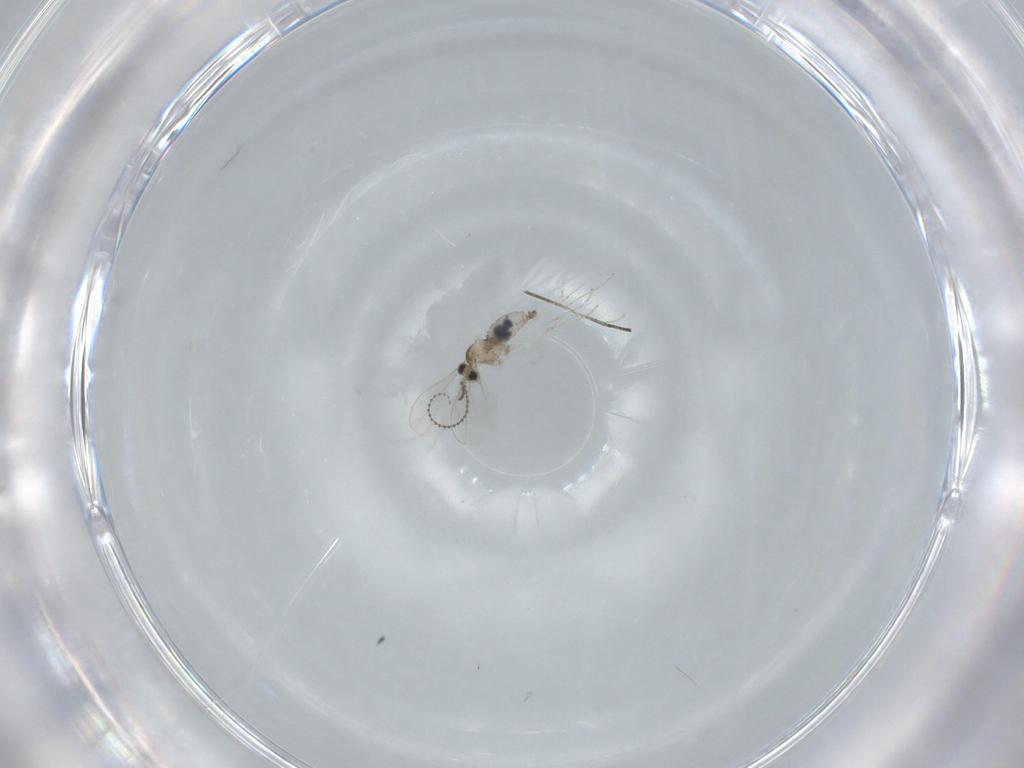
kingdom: Animalia
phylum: Arthropoda
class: Insecta
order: Diptera
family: Cecidomyiidae
